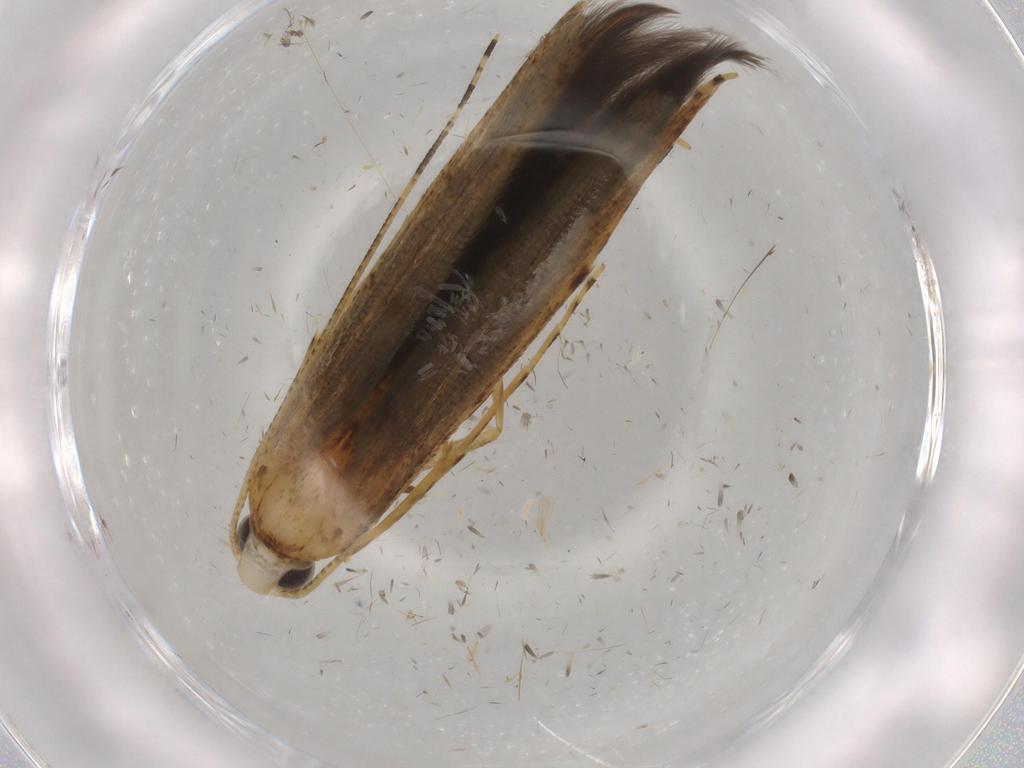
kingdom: Animalia
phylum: Arthropoda
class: Insecta
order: Lepidoptera
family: Batrachedridae
